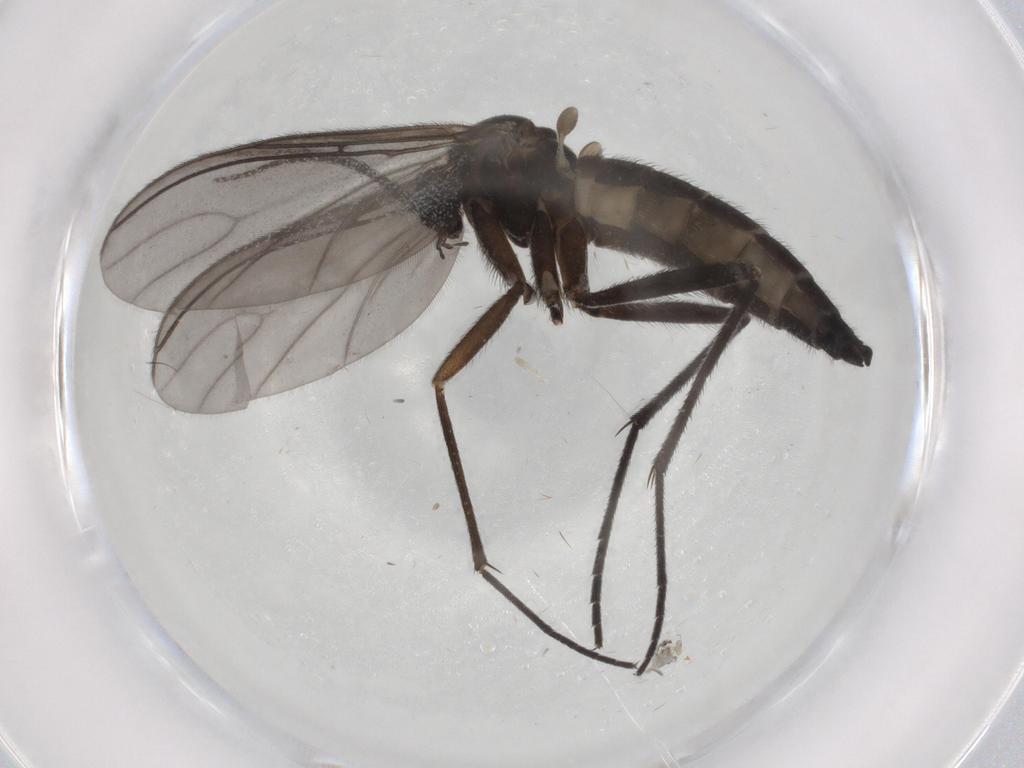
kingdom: Animalia
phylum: Arthropoda
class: Insecta
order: Diptera
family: Sciaridae
